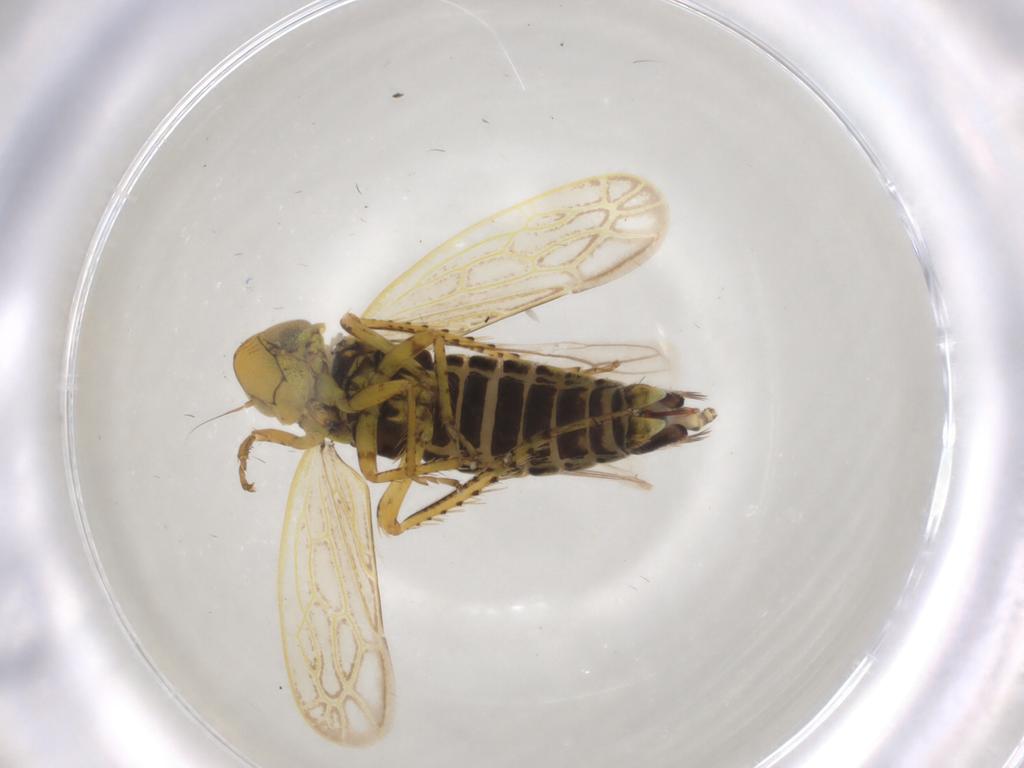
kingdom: Animalia
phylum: Arthropoda
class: Insecta
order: Hemiptera
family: Cicadellidae
